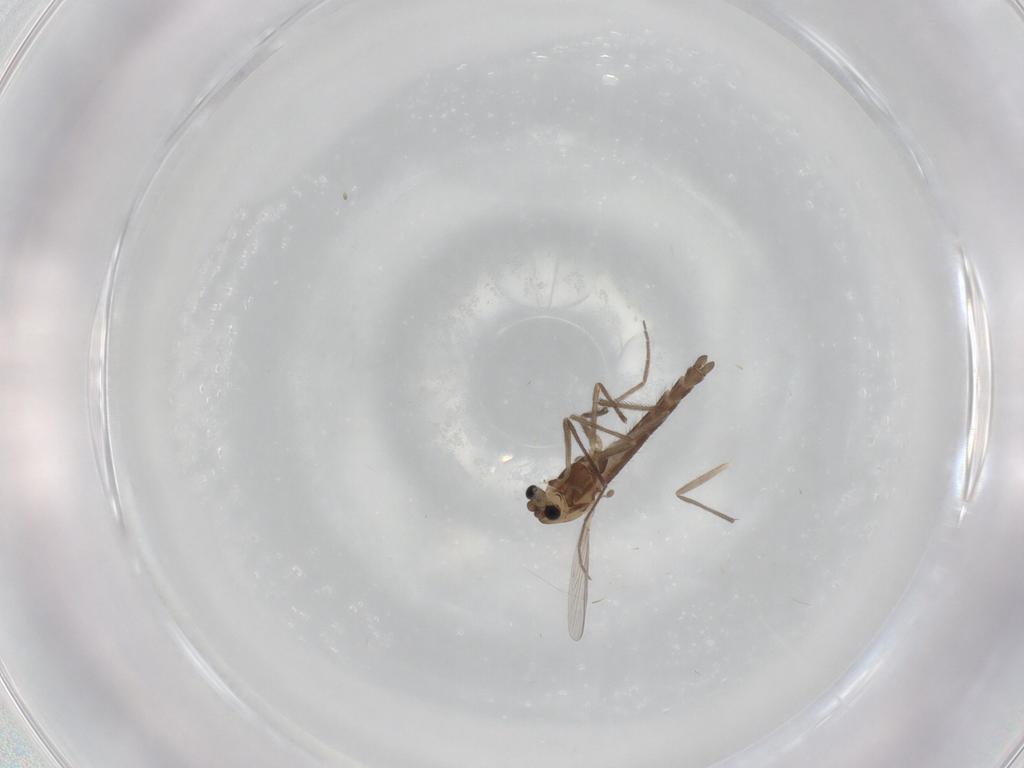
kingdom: Animalia
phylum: Arthropoda
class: Insecta
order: Diptera
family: Chironomidae
